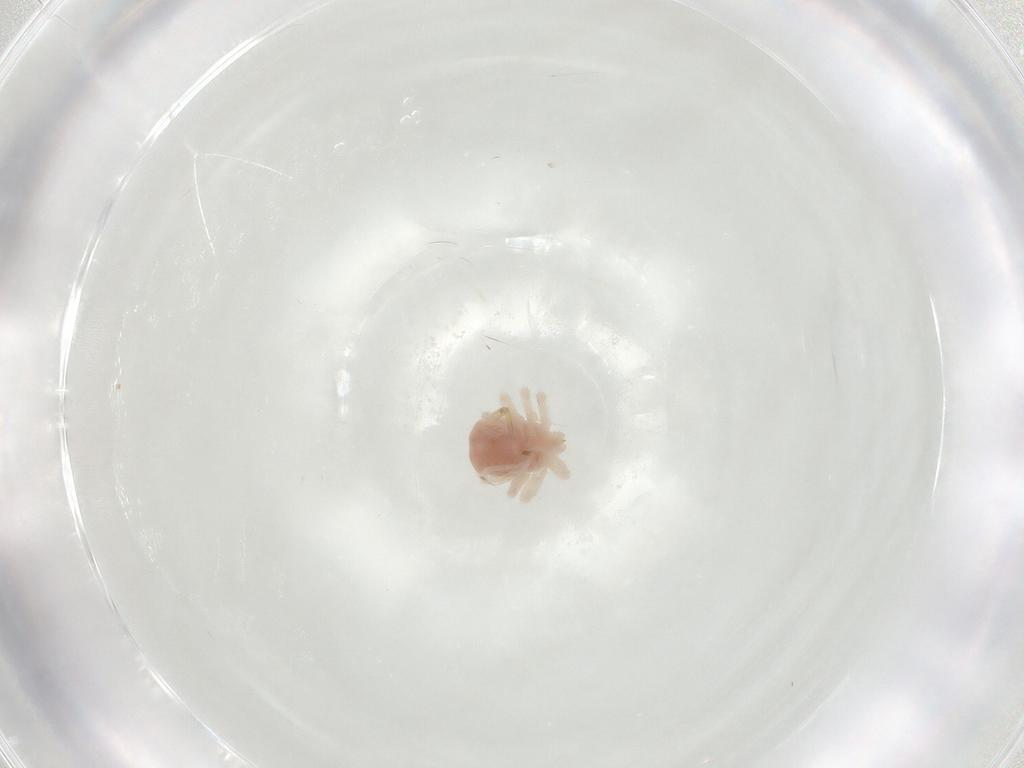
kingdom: Animalia
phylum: Arthropoda
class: Arachnida
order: Trombidiformes
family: Anystidae
